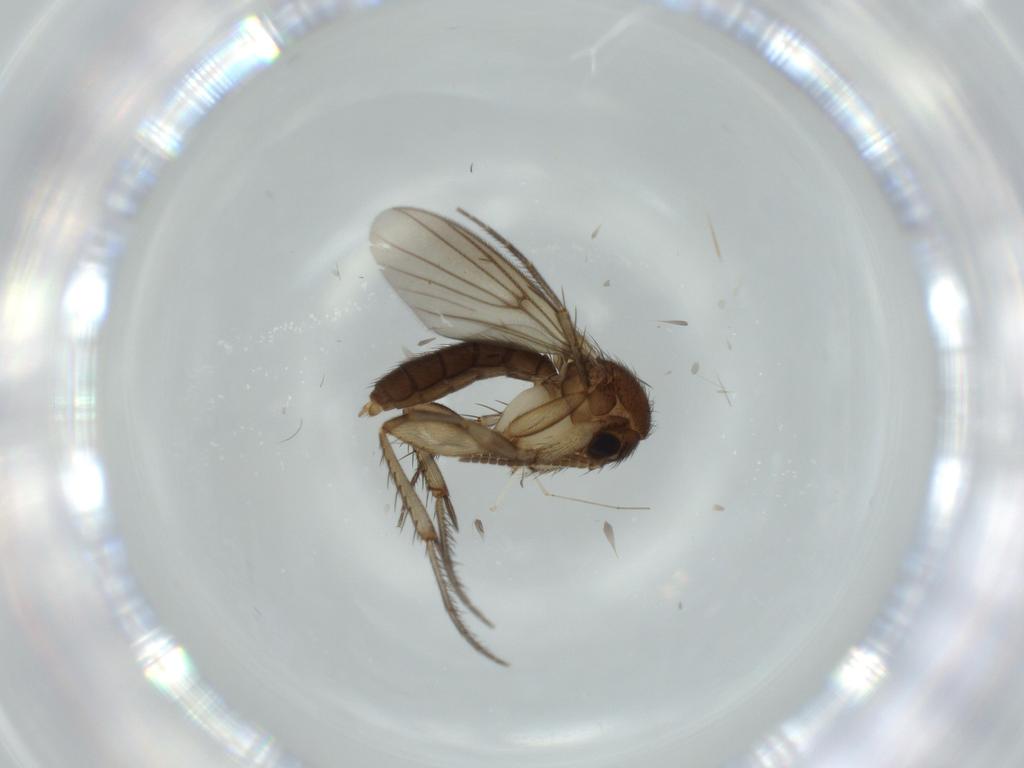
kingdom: Animalia
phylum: Arthropoda
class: Insecta
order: Diptera
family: Mycetophilidae
